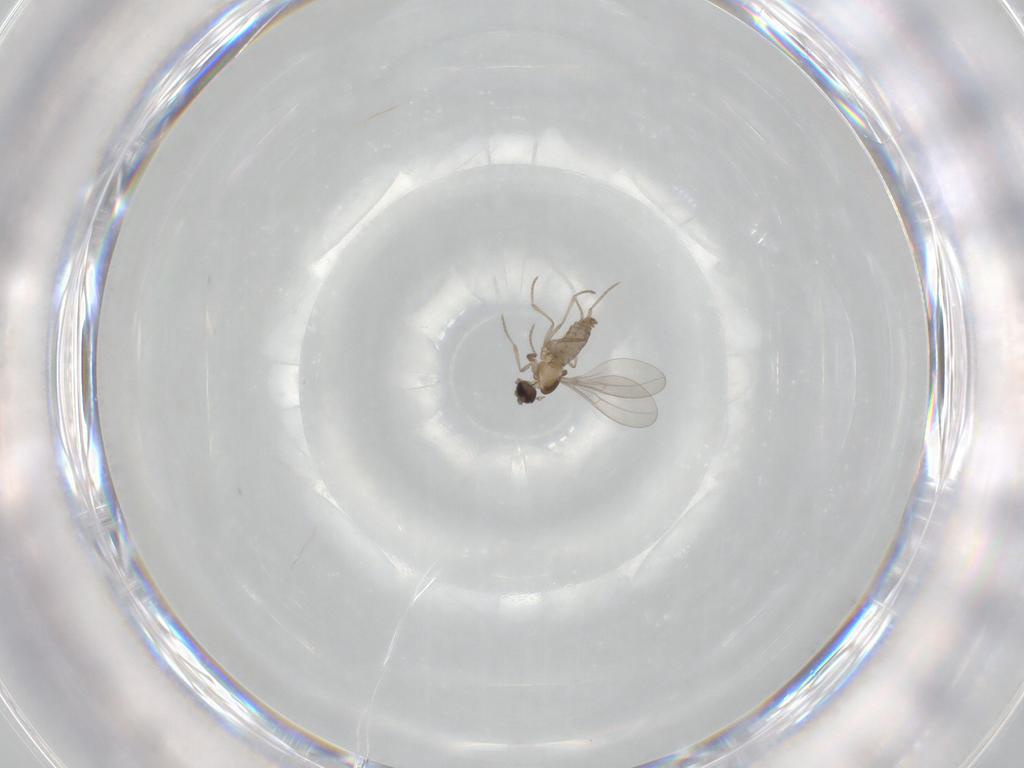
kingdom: Animalia
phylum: Arthropoda
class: Insecta
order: Diptera
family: Cecidomyiidae
